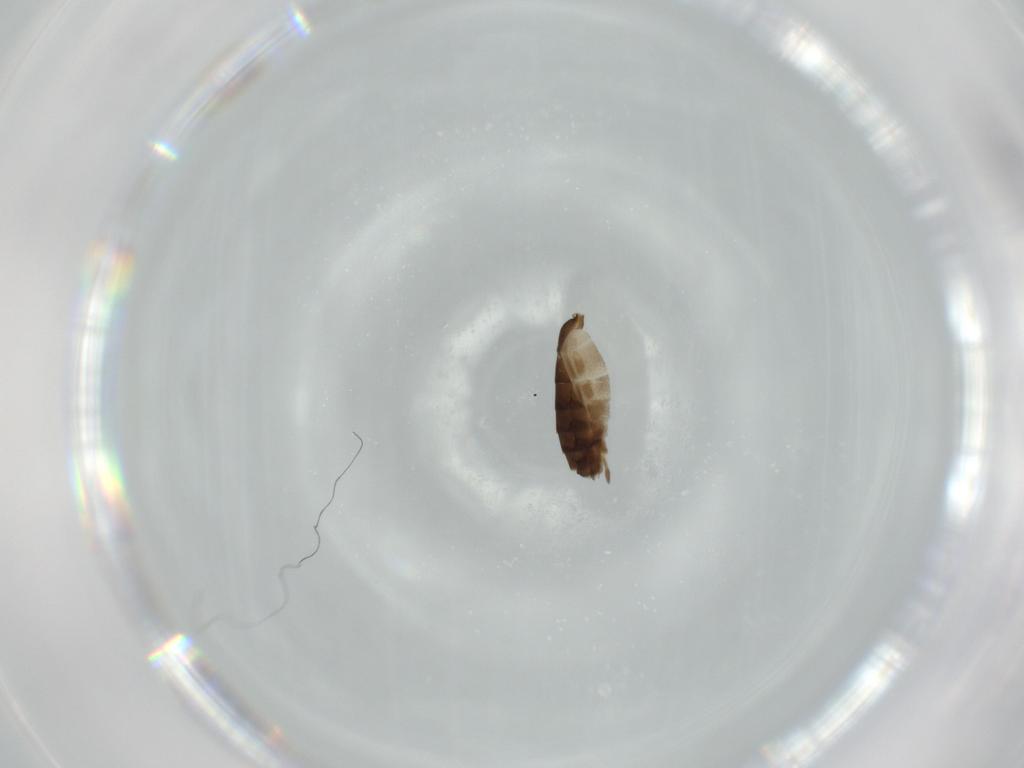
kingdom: Animalia
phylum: Arthropoda
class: Insecta
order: Hymenoptera
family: Ichneumonidae
